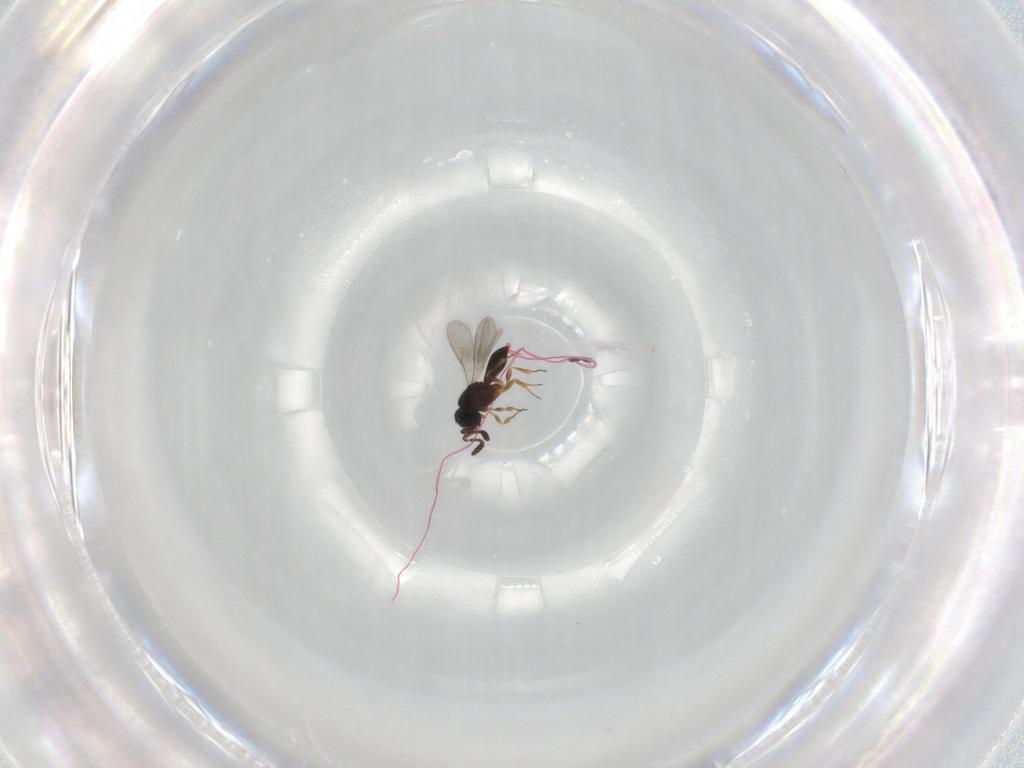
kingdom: Animalia
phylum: Arthropoda
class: Insecta
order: Hymenoptera
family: Scelionidae
